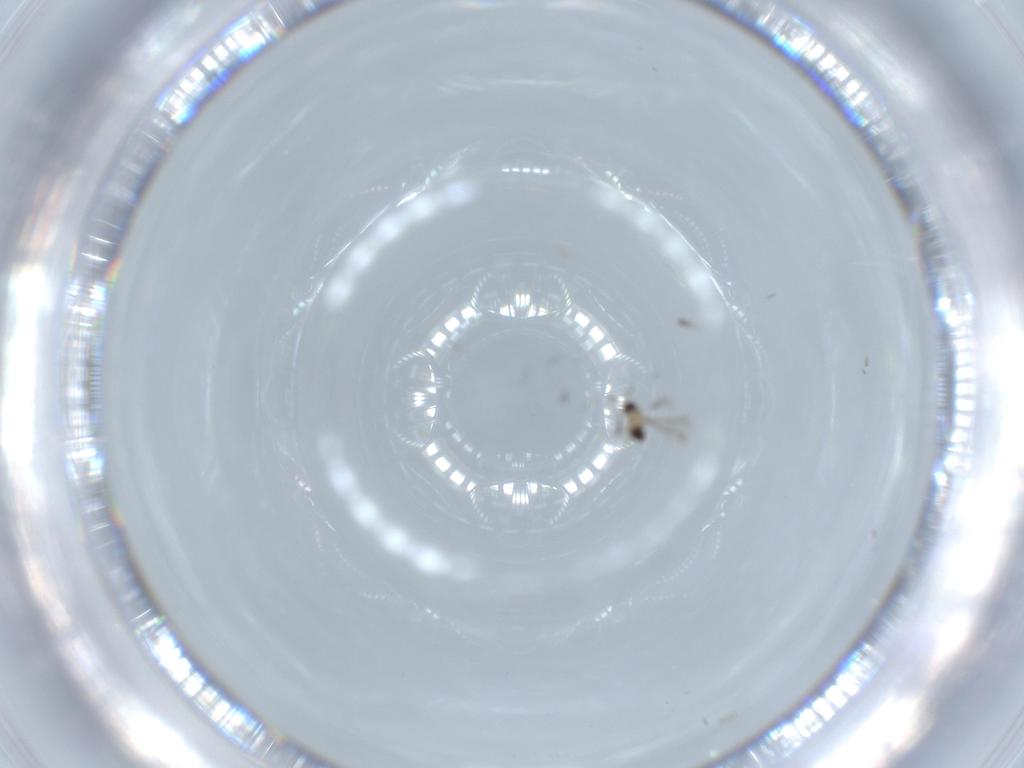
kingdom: Animalia
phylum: Arthropoda
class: Insecta
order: Hymenoptera
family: Mymaridae
